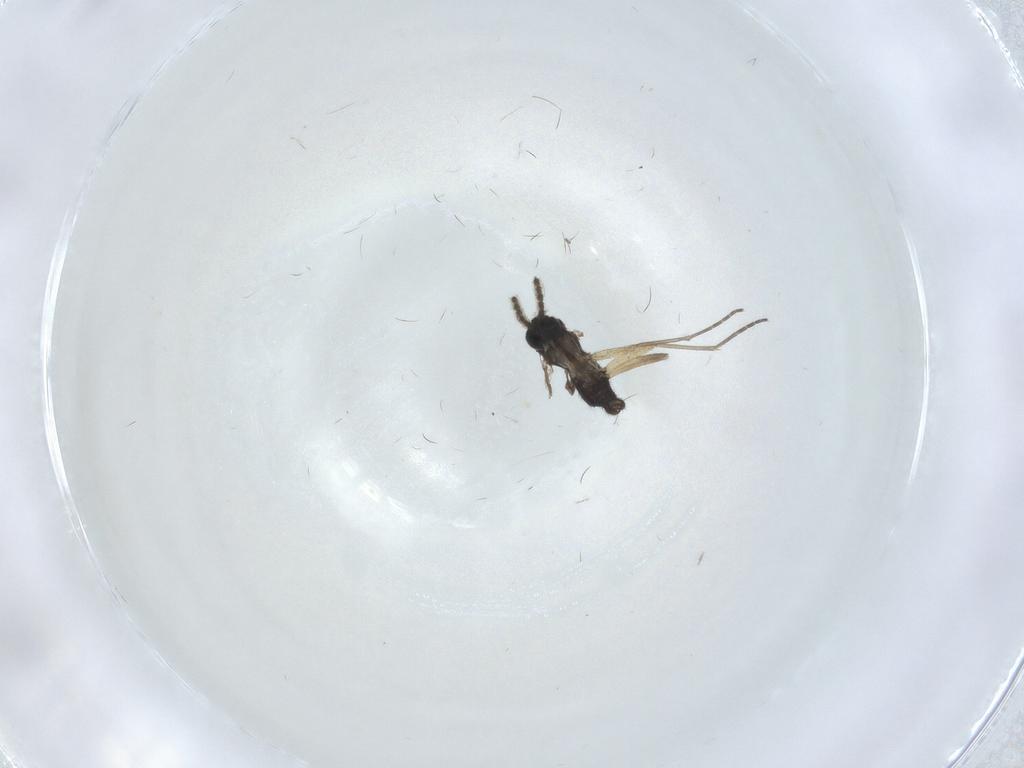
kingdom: Animalia
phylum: Arthropoda
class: Insecta
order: Diptera
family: Sciaridae
